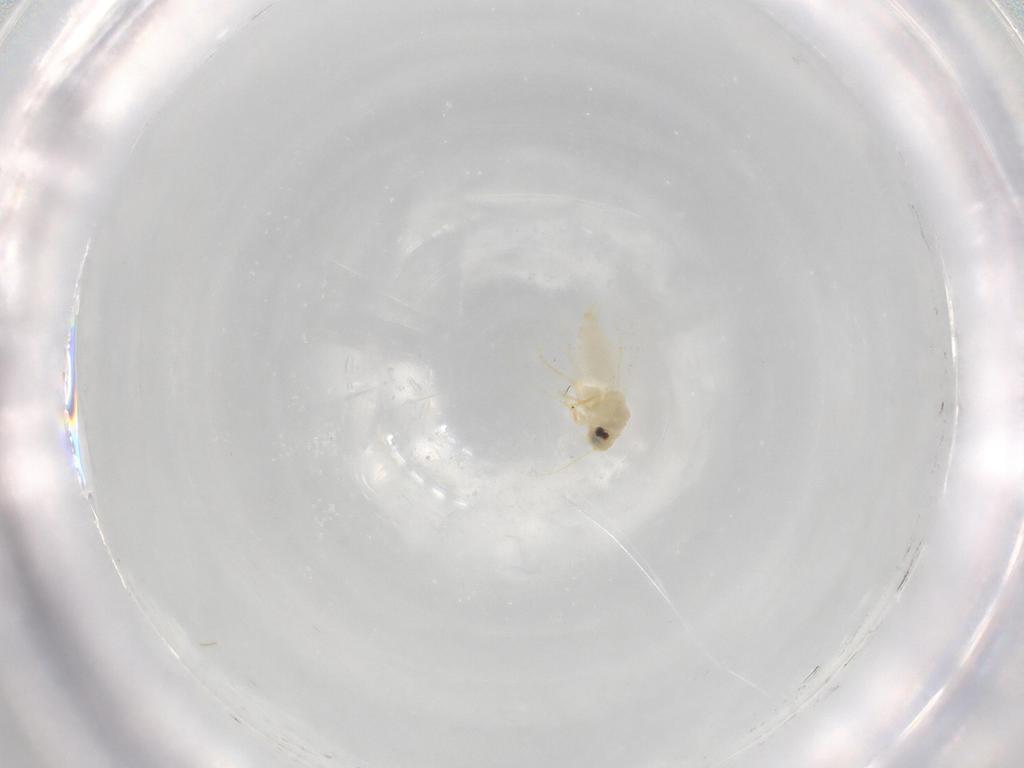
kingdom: Animalia
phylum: Arthropoda
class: Insecta
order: Hemiptera
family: Aleyrodidae
